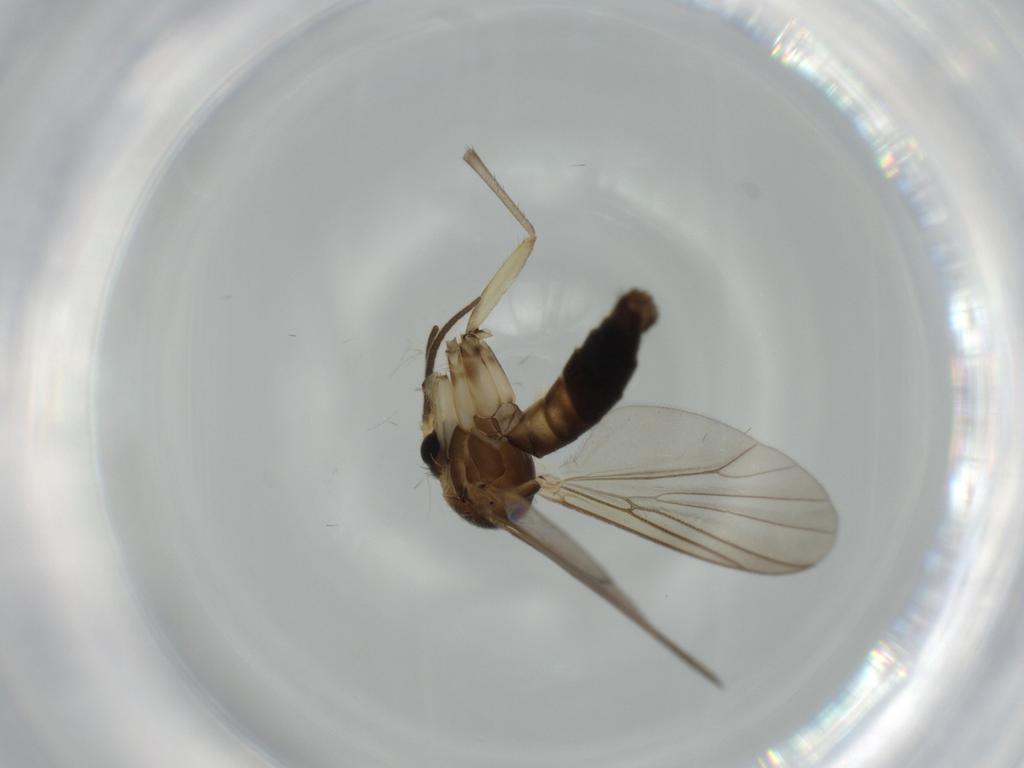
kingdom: Animalia
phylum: Arthropoda
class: Insecta
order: Diptera
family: Mycetophilidae
